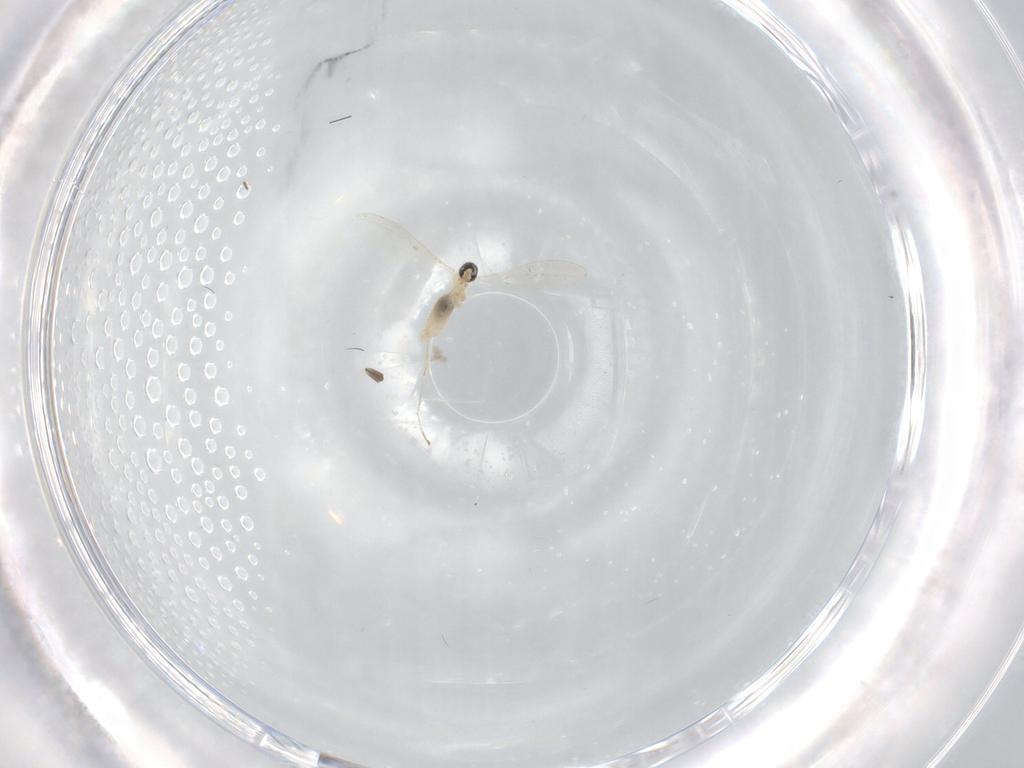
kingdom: Animalia
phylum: Arthropoda
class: Insecta
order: Diptera
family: Cecidomyiidae
